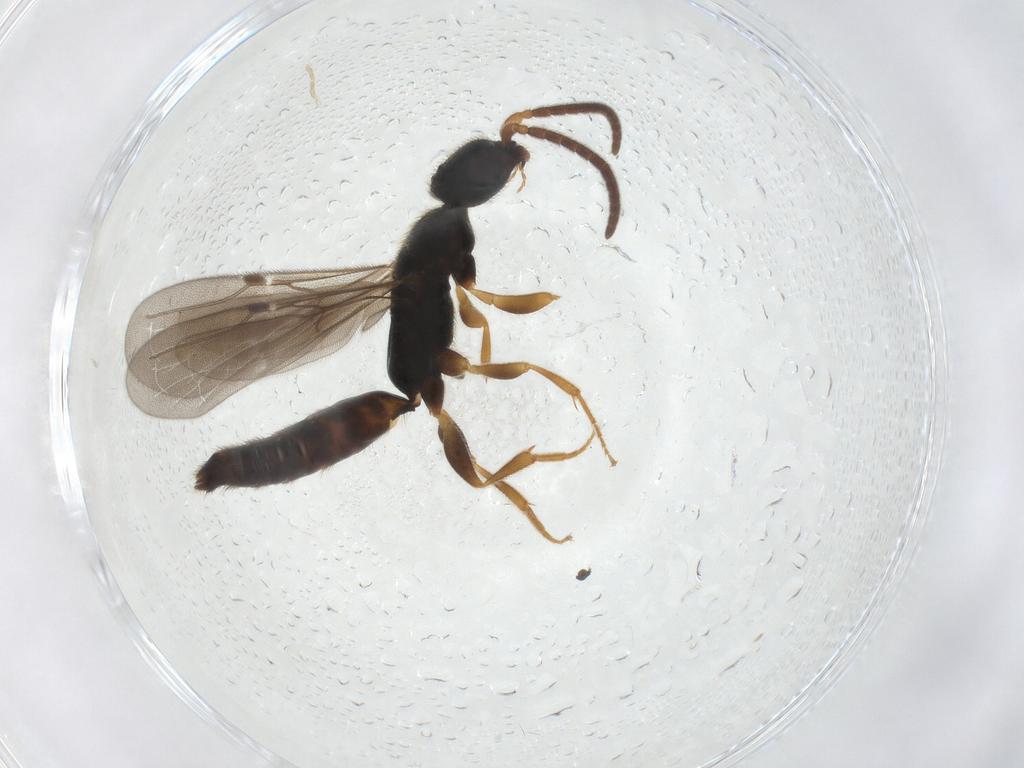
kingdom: Animalia
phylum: Arthropoda
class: Insecta
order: Hymenoptera
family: Bethylidae
